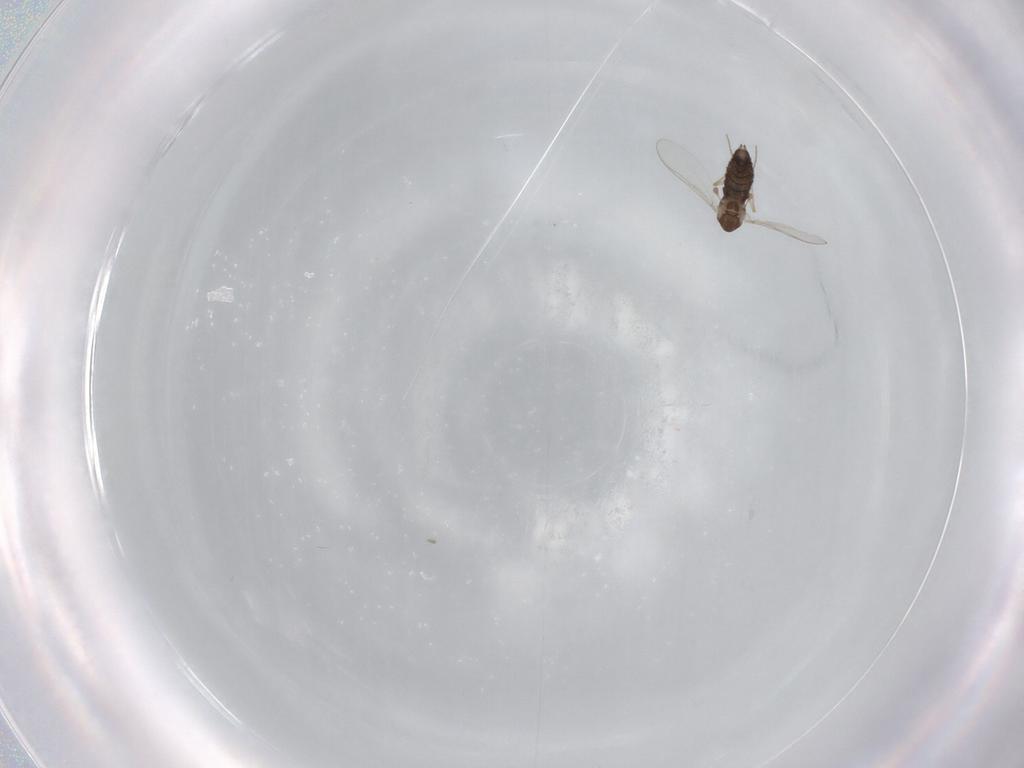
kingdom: Animalia
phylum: Arthropoda
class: Insecta
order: Diptera
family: Chironomidae
